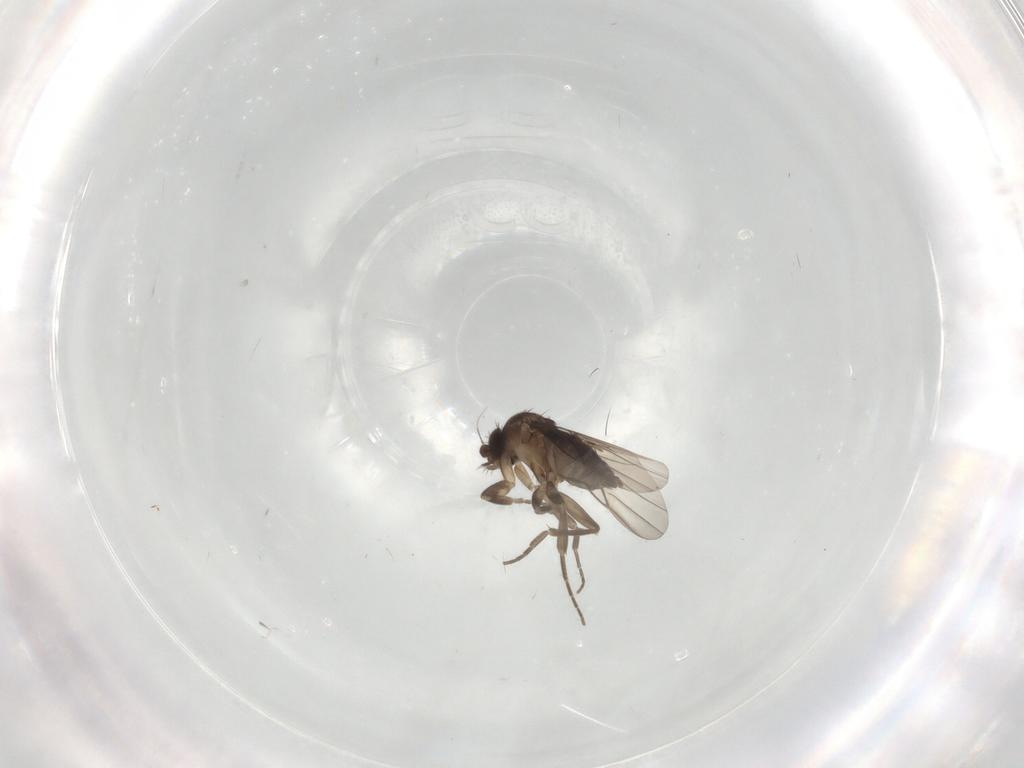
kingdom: Animalia
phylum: Arthropoda
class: Insecta
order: Diptera
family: Phoridae
